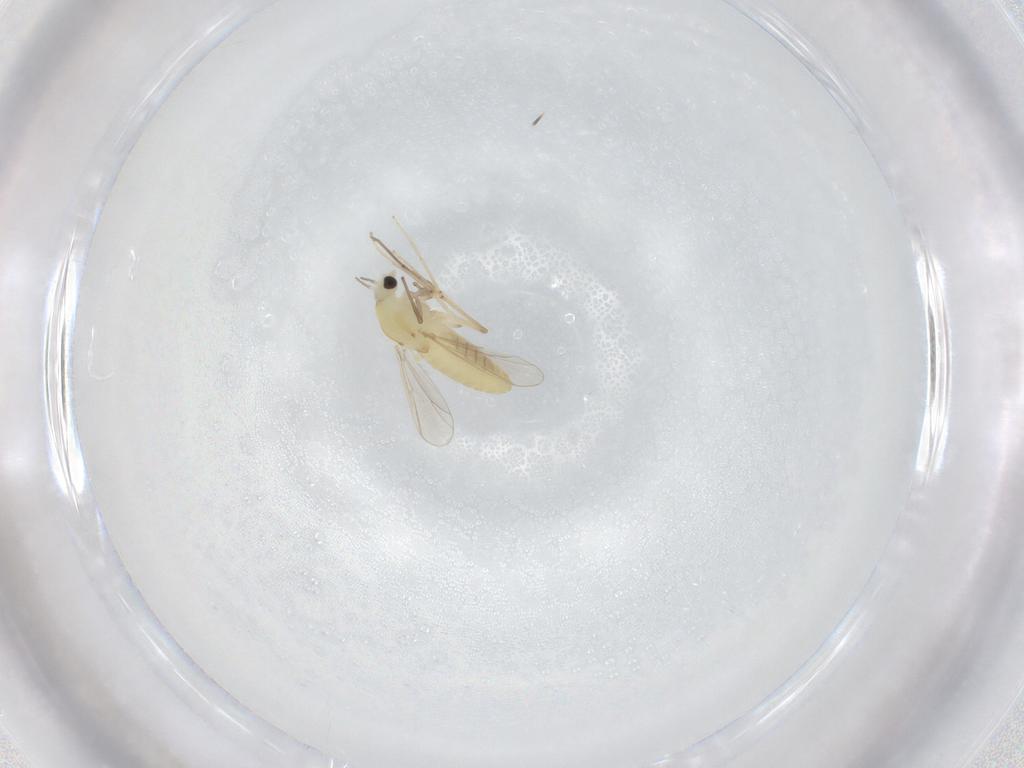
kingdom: Animalia
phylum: Arthropoda
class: Insecta
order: Diptera
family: Chironomidae
